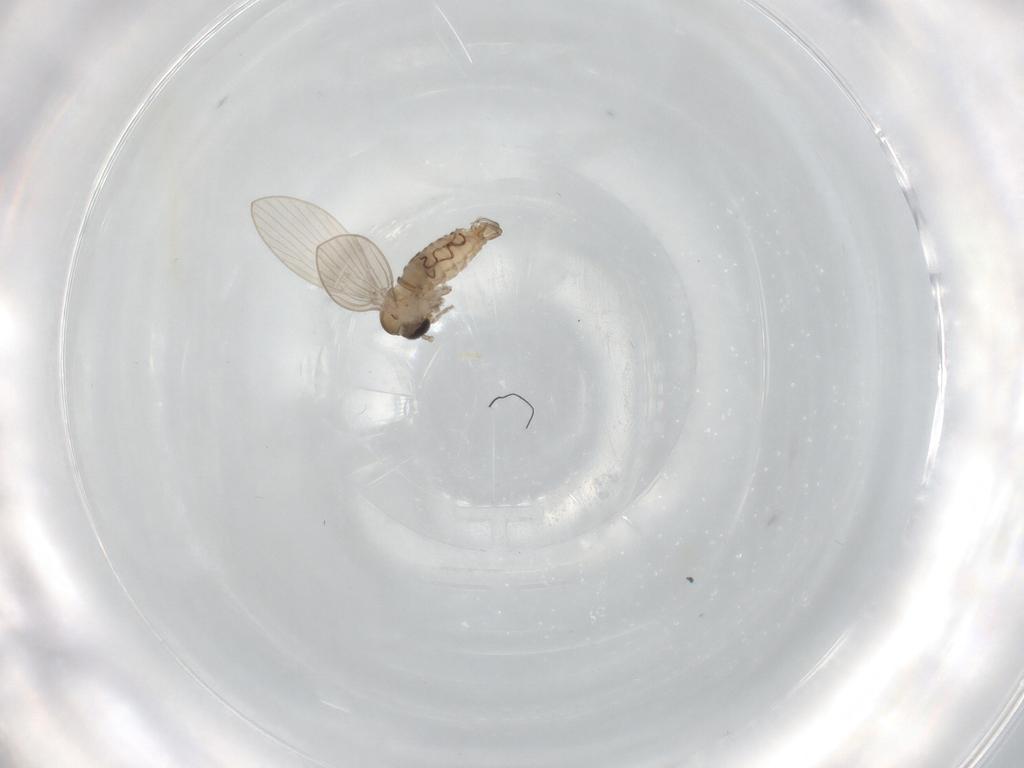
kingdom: Animalia
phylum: Arthropoda
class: Insecta
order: Diptera
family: Psychodidae
